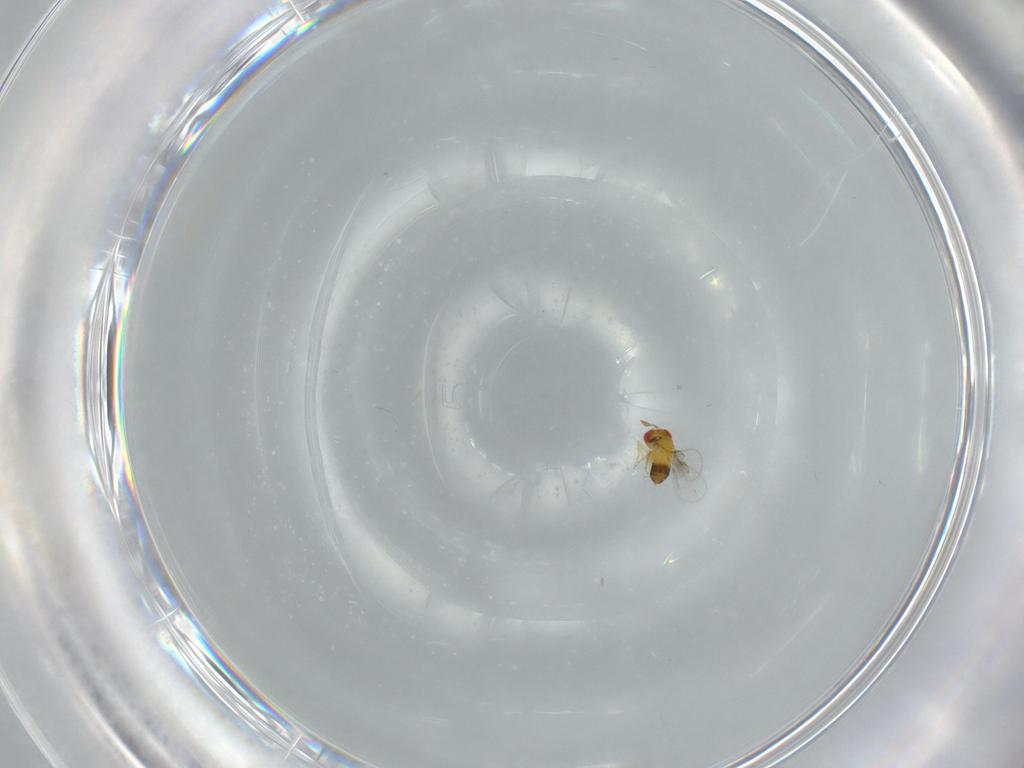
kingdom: Animalia
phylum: Arthropoda
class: Insecta
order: Hymenoptera
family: Trichogrammatidae
